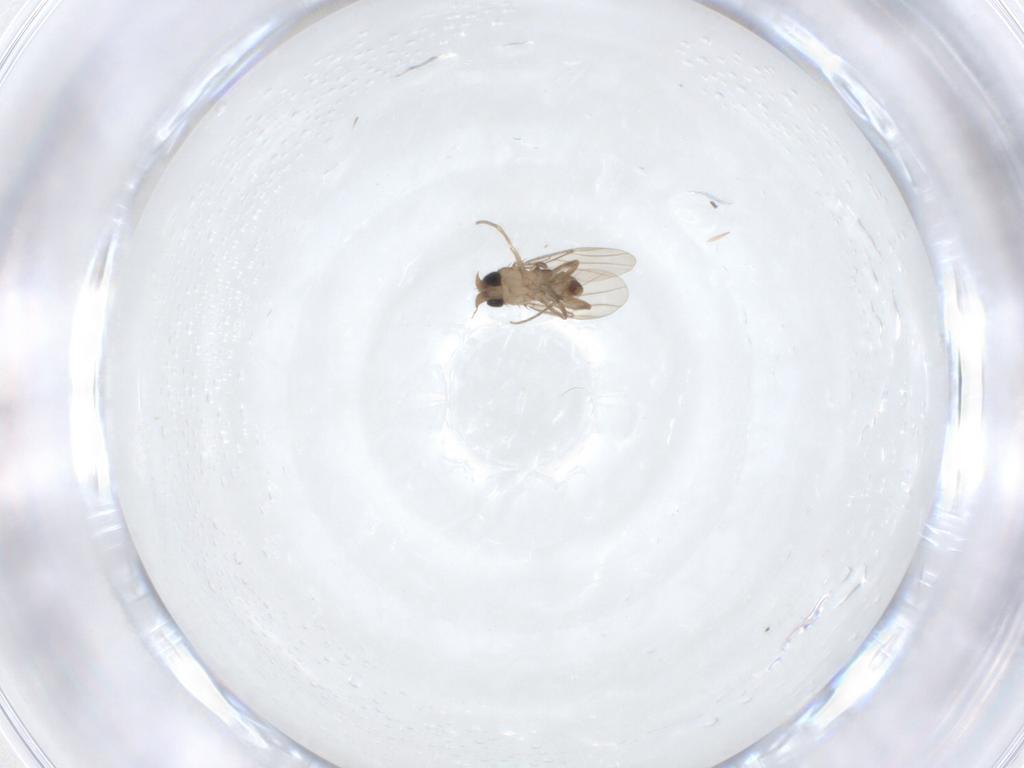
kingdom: Animalia
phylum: Arthropoda
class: Insecta
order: Diptera
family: Phoridae
